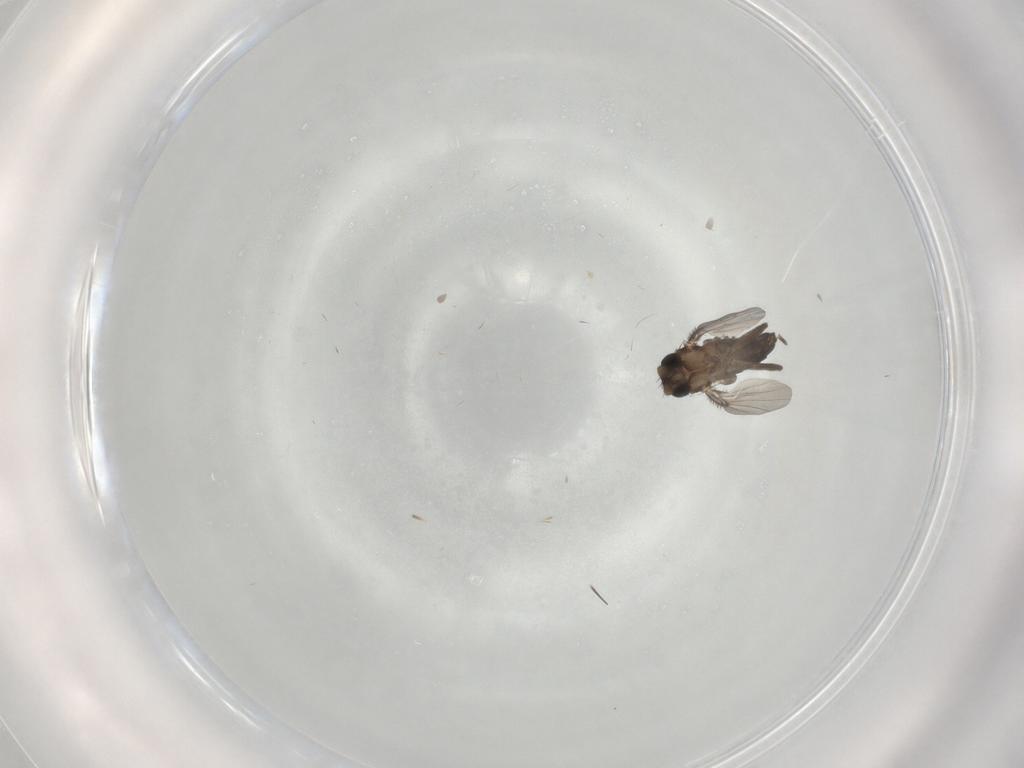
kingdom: Animalia
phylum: Arthropoda
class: Insecta
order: Diptera
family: Phoridae
